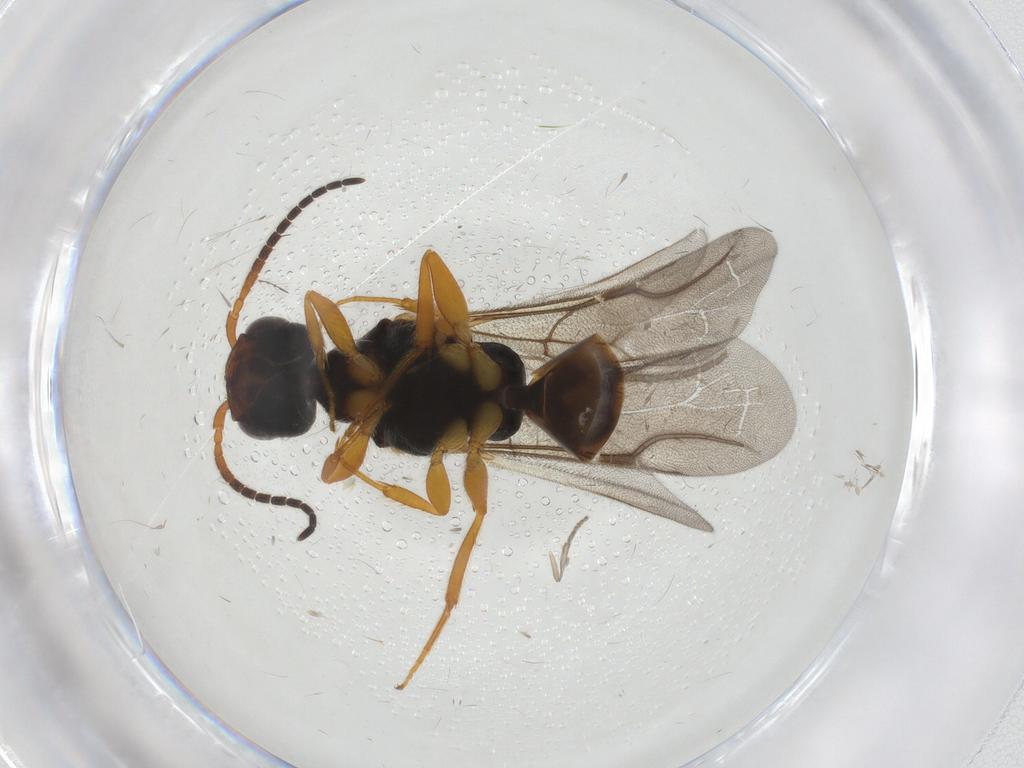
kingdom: Animalia
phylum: Arthropoda
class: Insecta
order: Hymenoptera
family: Bethylidae
